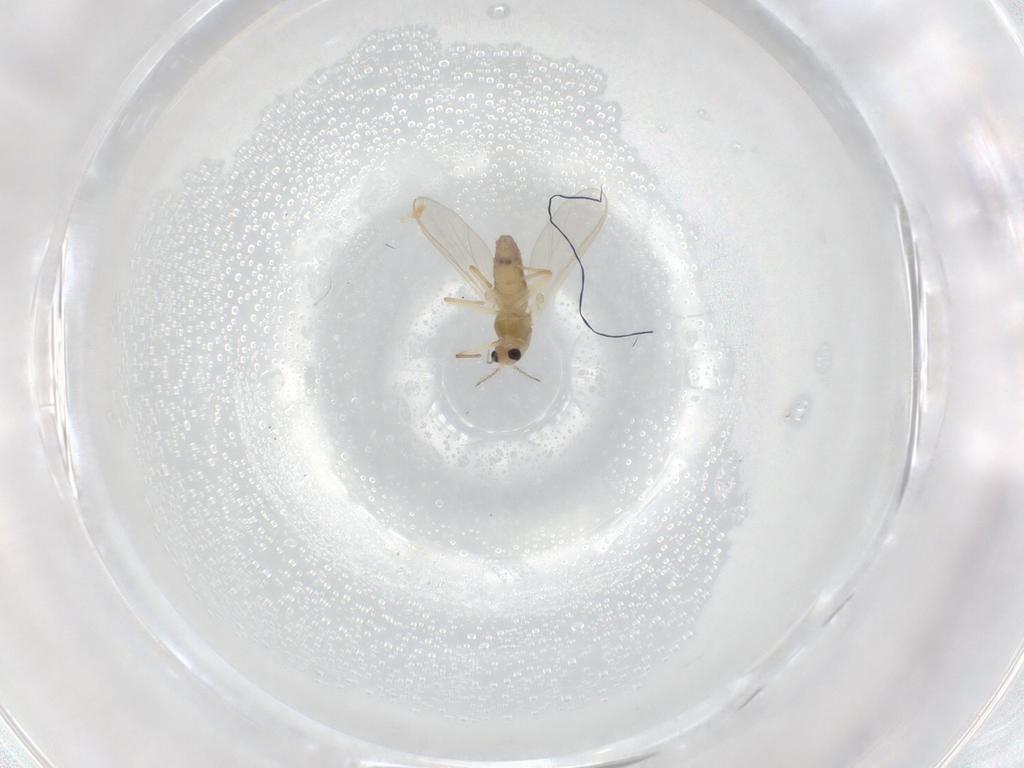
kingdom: Animalia
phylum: Arthropoda
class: Insecta
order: Diptera
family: Chironomidae
